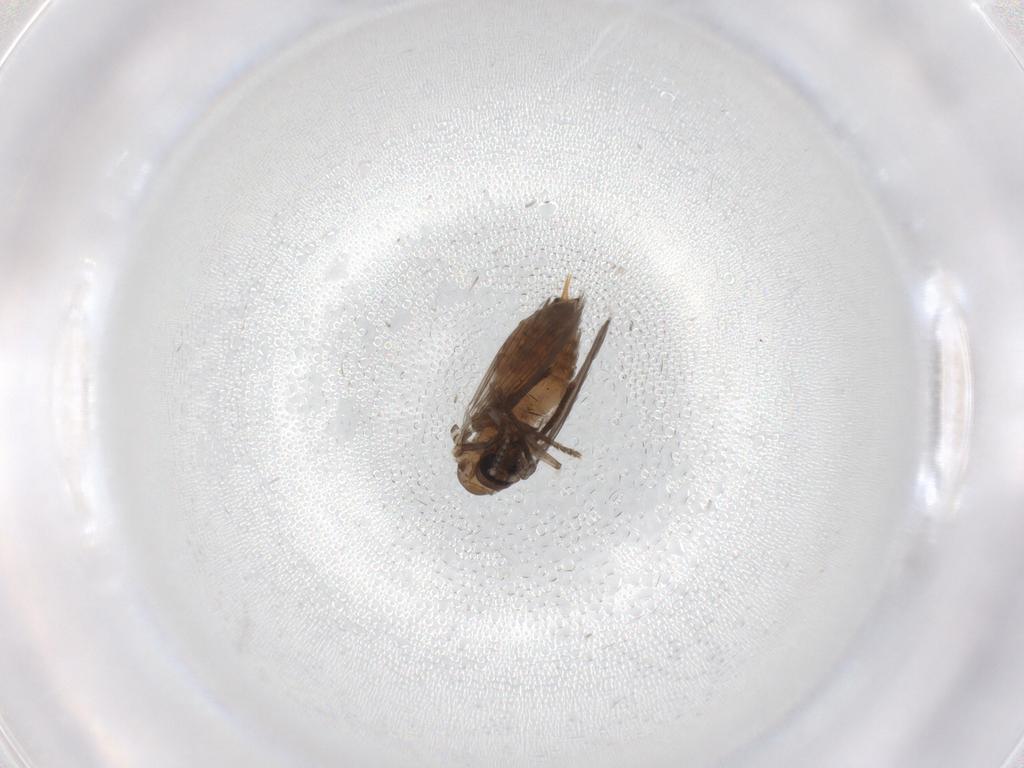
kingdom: Animalia
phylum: Arthropoda
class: Insecta
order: Diptera
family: Psychodidae
